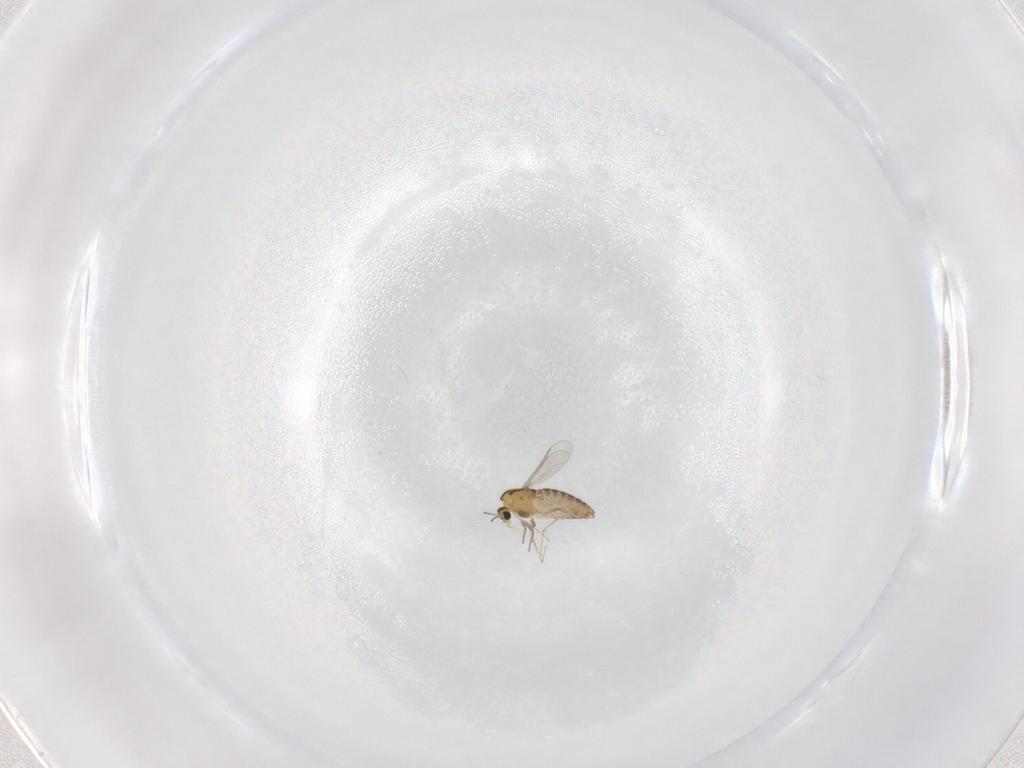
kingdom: Animalia
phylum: Arthropoda
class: Insecta
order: Diptera
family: Chironomidae
